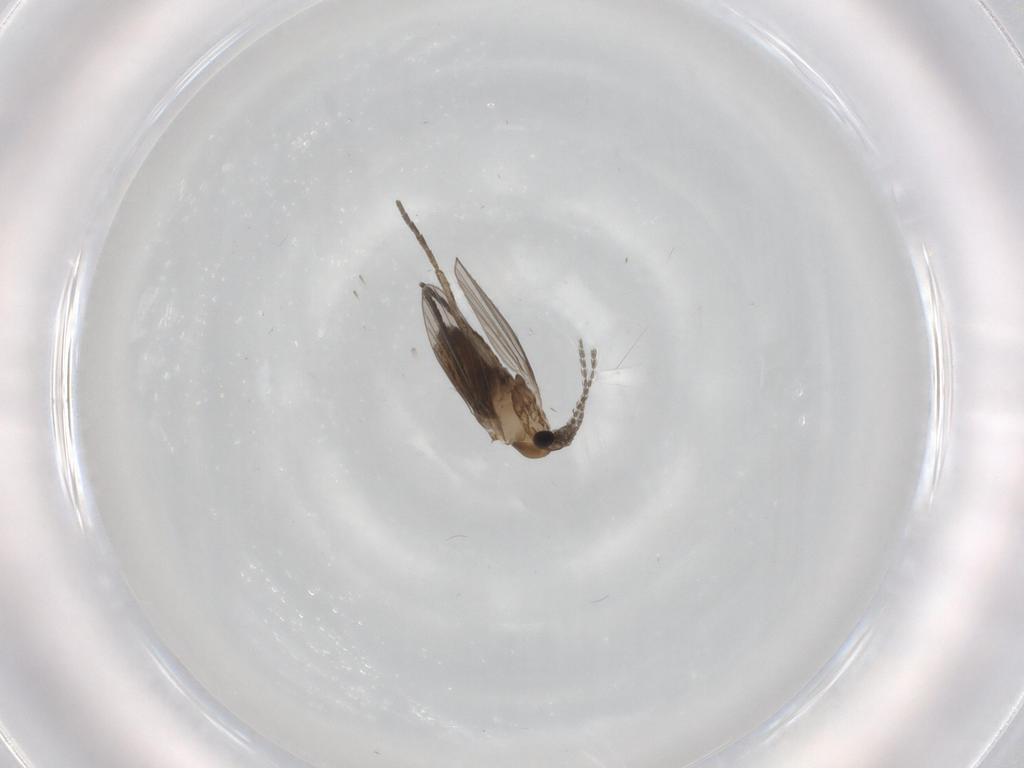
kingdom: Animalia
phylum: Arthropoda
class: Insecta
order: Diptera
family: Psychodidae
